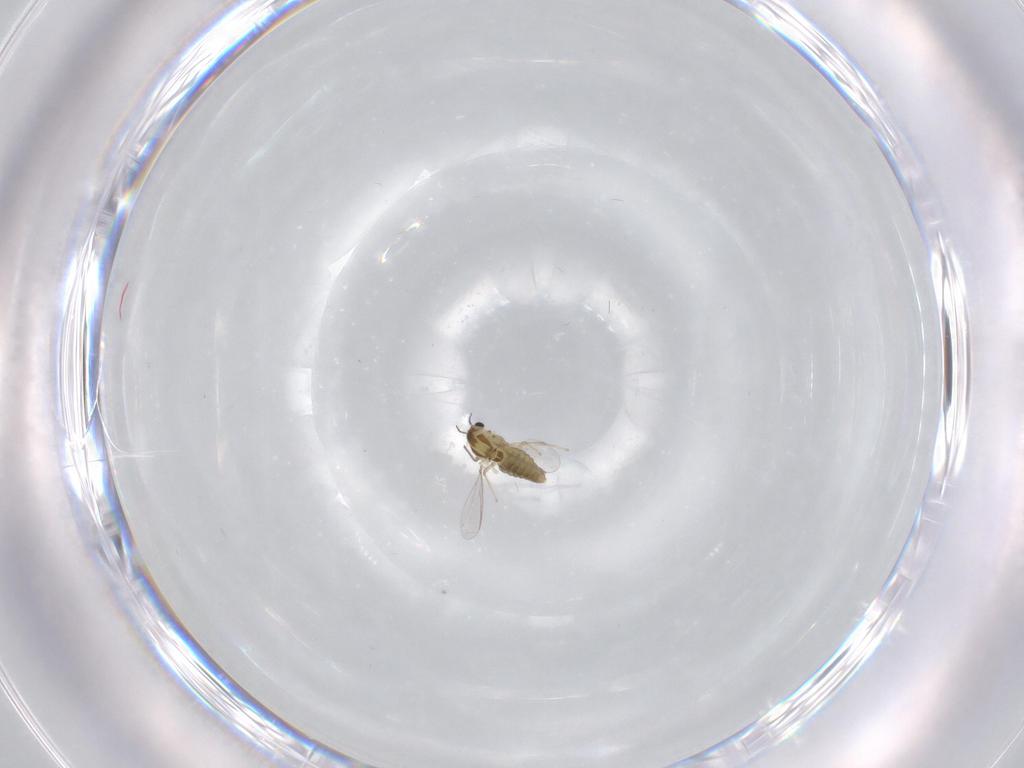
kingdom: Animalia
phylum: Arthropoda
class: Insecta
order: Diptera
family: Chironomidae
